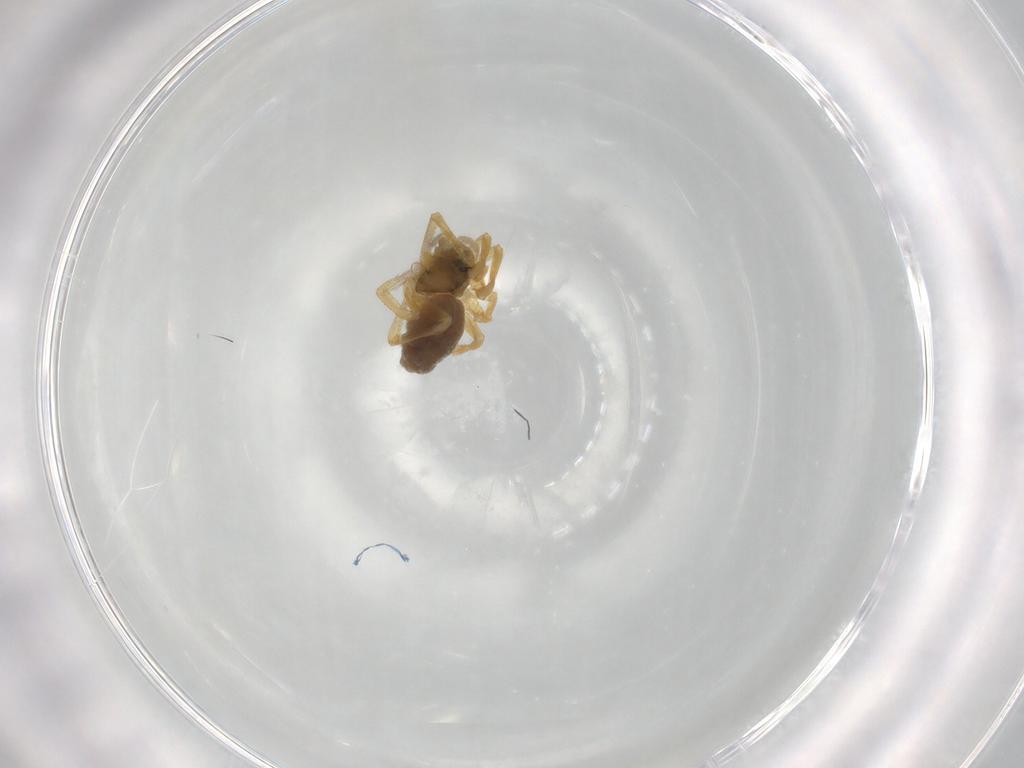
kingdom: Animalia
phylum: Arthropoda
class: Arachnida
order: Araneae
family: Linyphiidae
